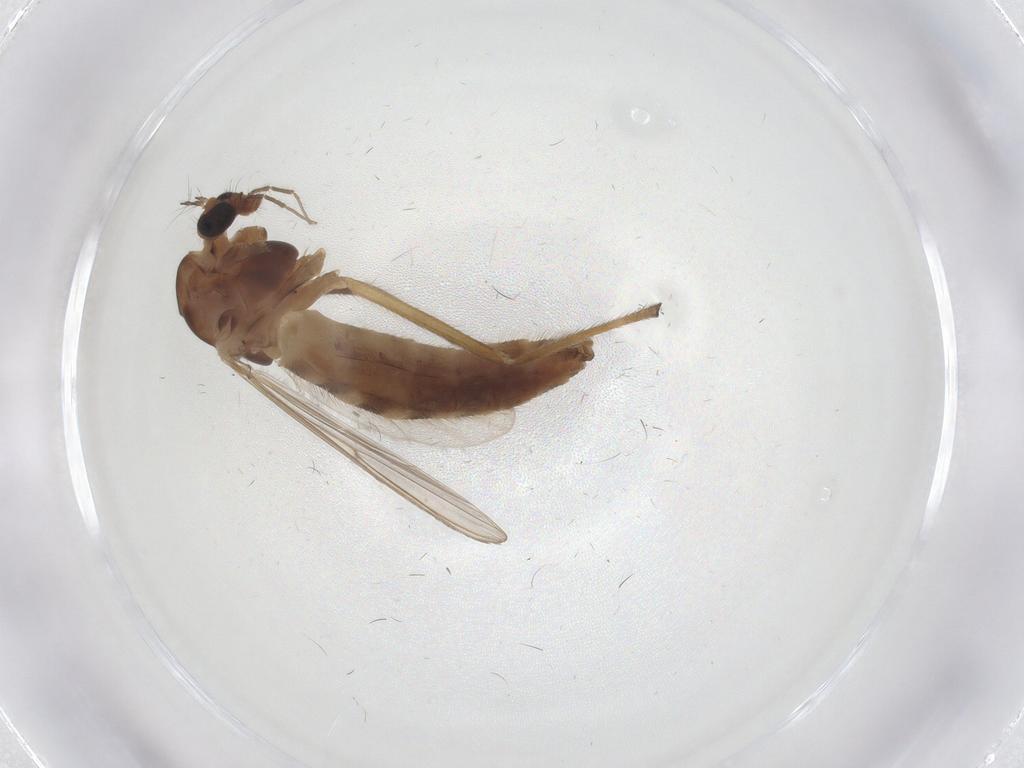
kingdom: Animalia
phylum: Arthropoda
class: Insecta
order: Diptera
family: Chironomidae
